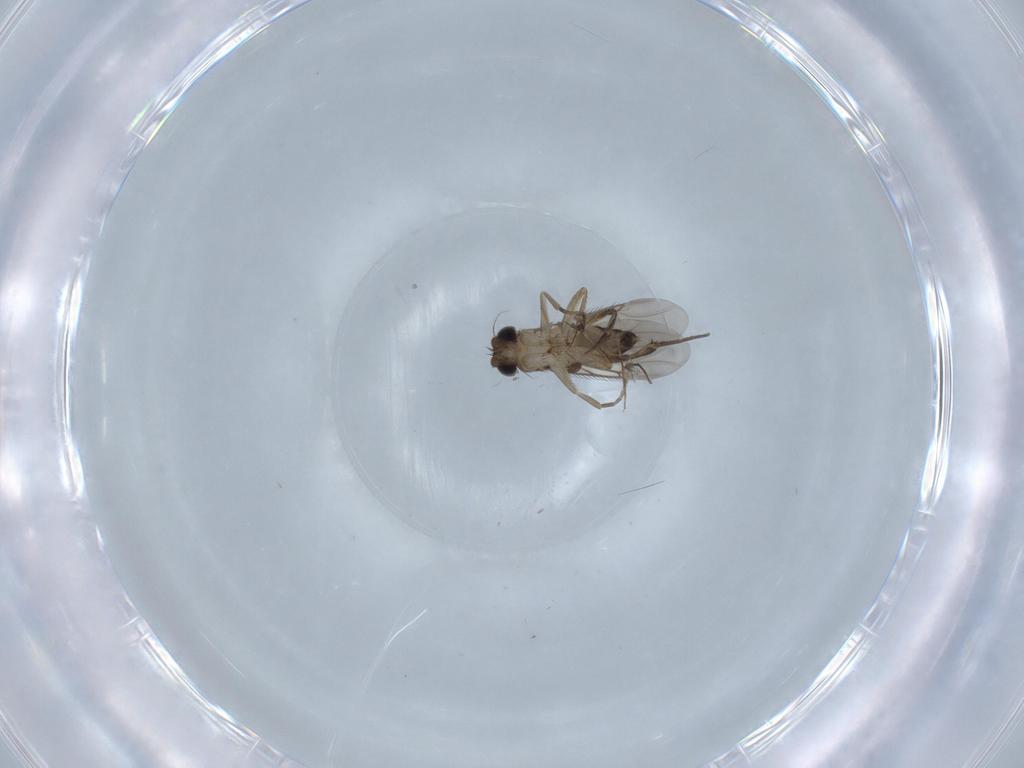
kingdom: Animalia
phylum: Arthropoda
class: Insecta
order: Diptera
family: Phoridae
